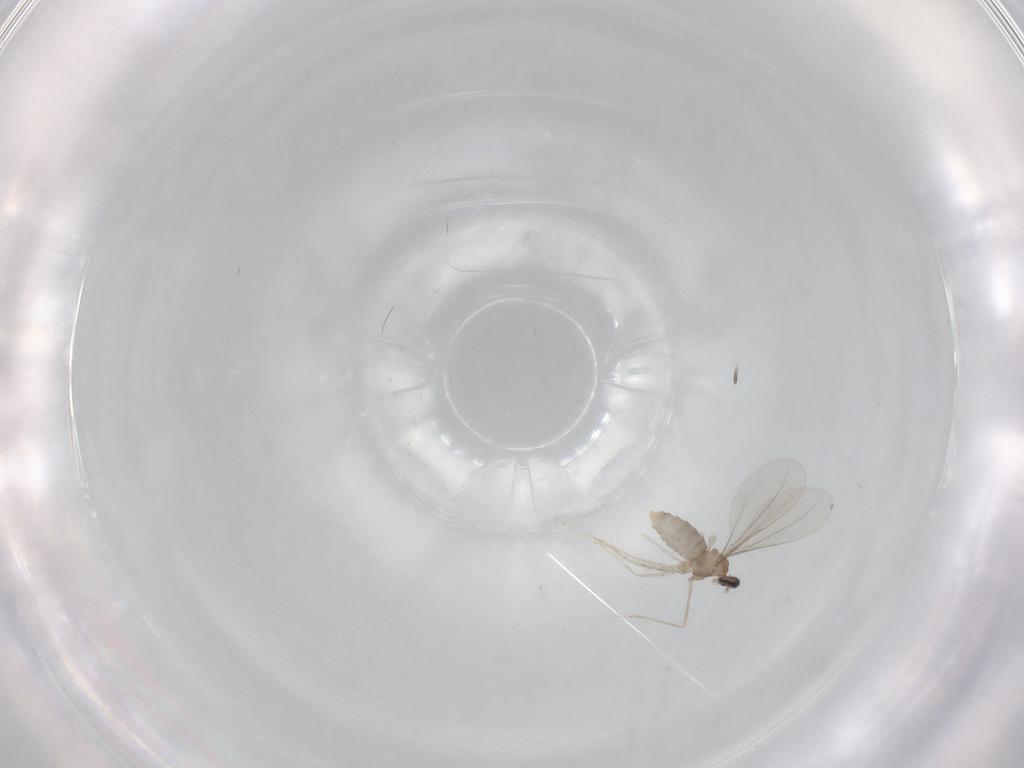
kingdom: Animalia
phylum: Arthropoda
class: Insecta
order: Diptera
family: Cecidomyiidae
